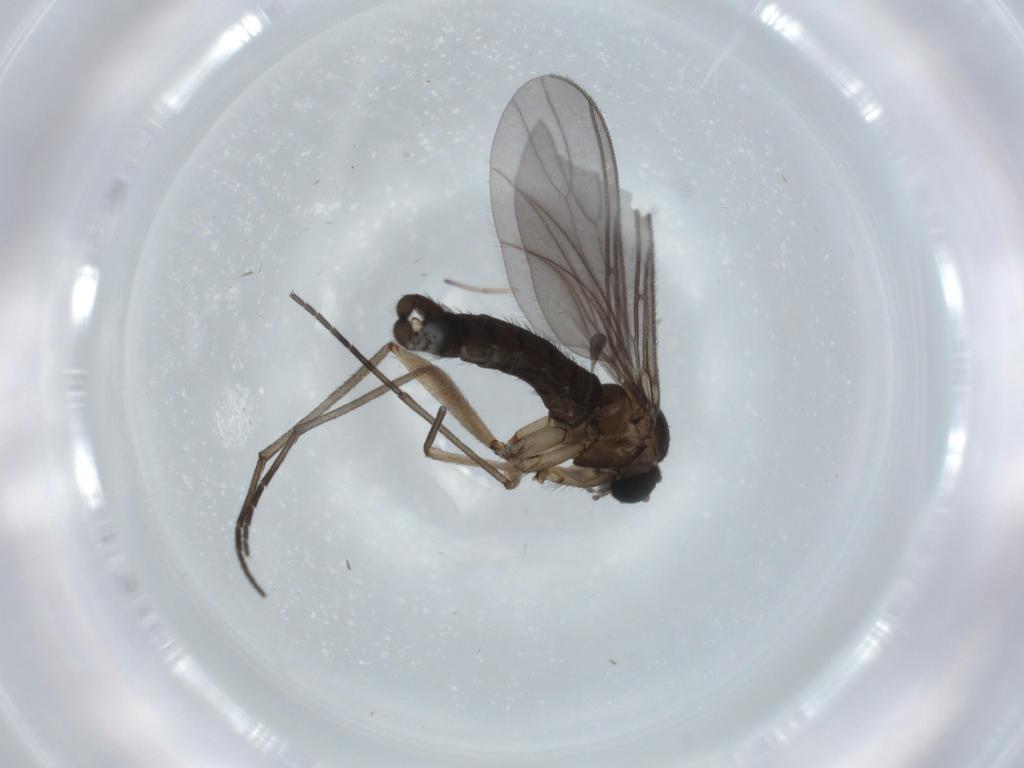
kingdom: Animalia
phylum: Arthropoda
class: Insecta
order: Diptera
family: Sciaridae
